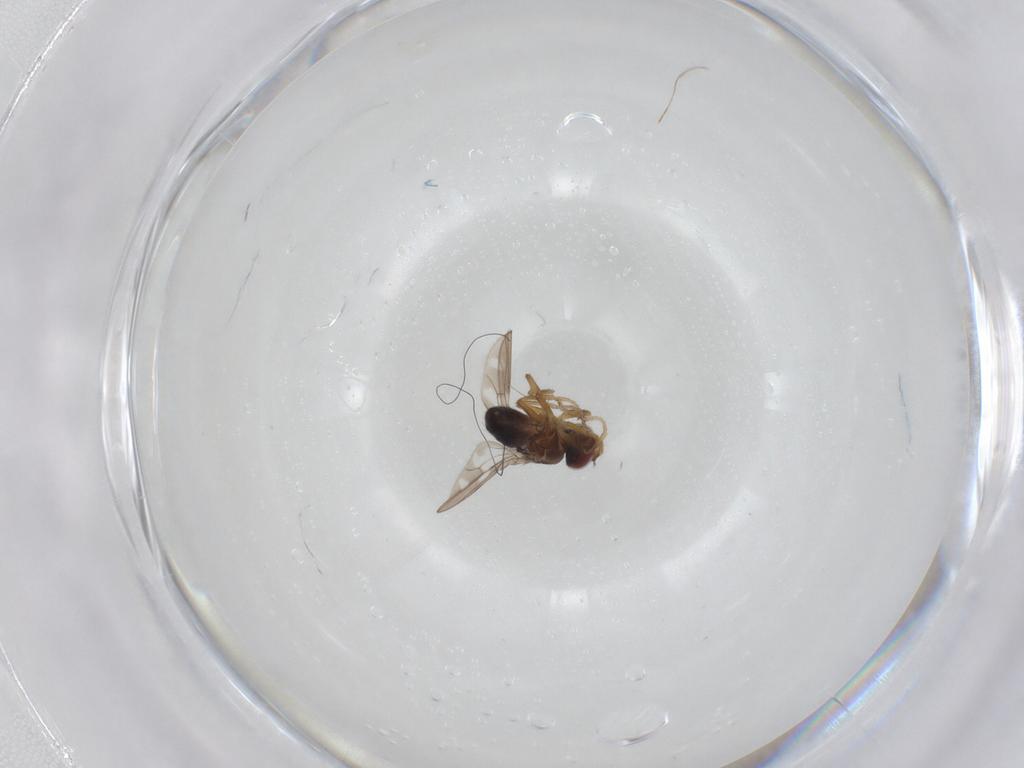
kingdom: Animalia
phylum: Arthropoda
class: Insecta
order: Diptera
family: Ephydridae
